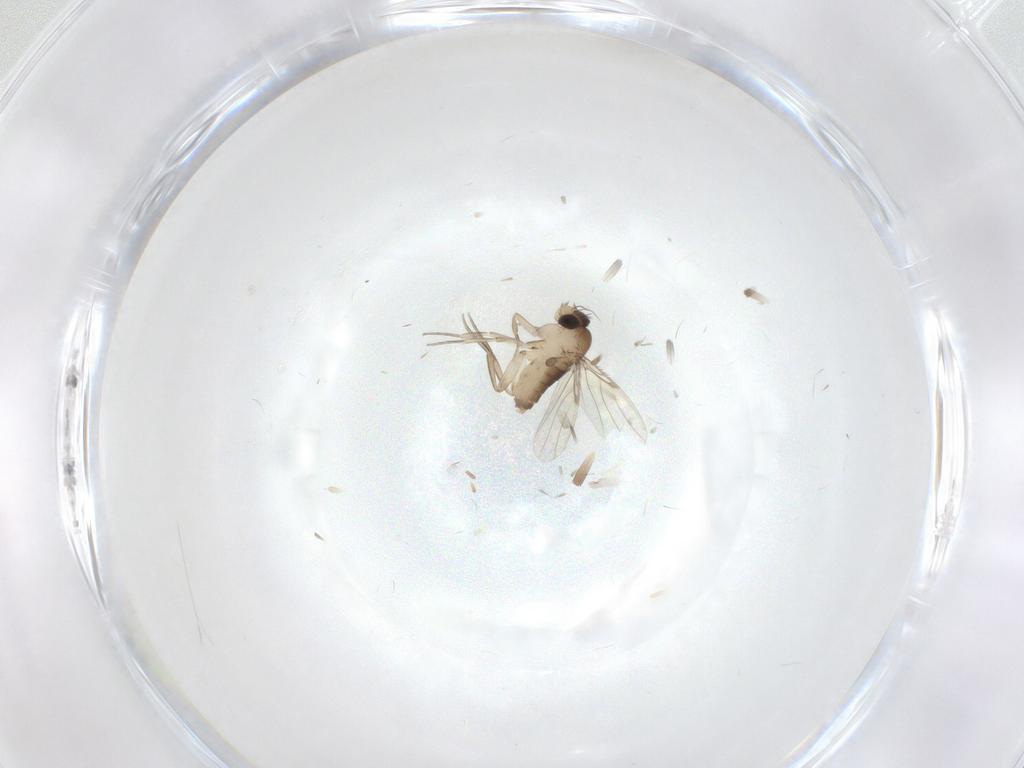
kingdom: Animalia
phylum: Arthropoda
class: Insecta
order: Diptera
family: Phoridae
